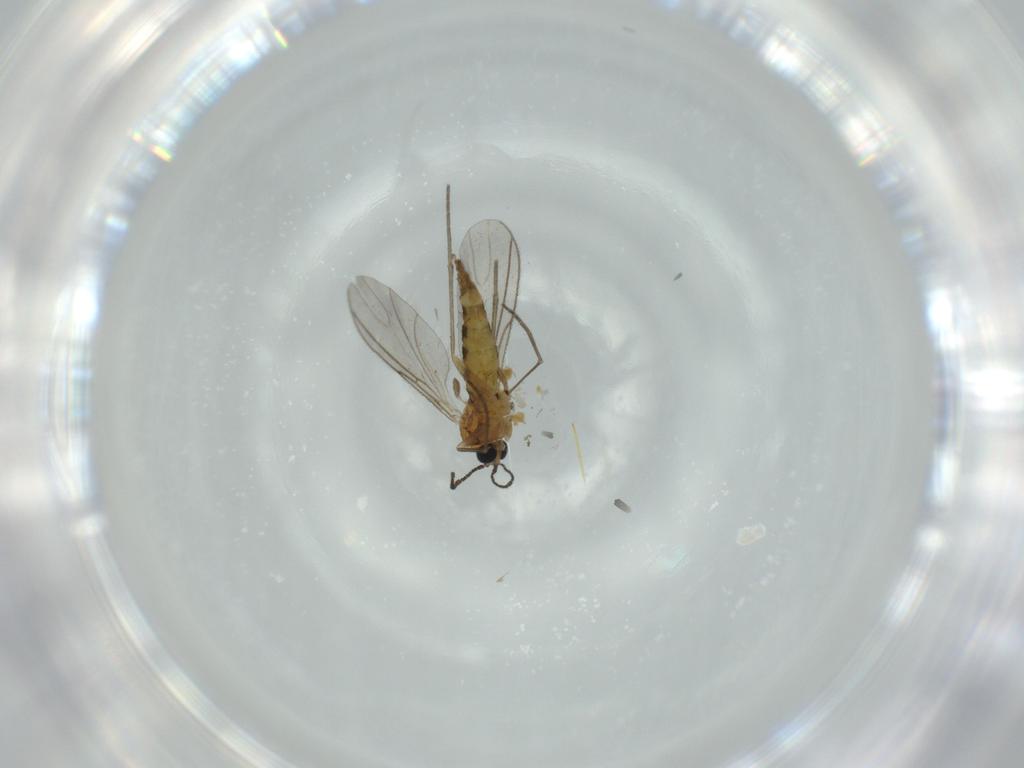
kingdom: Animalia
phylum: Arthropoda
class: Insecta
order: Diptera
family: Sciaridae
